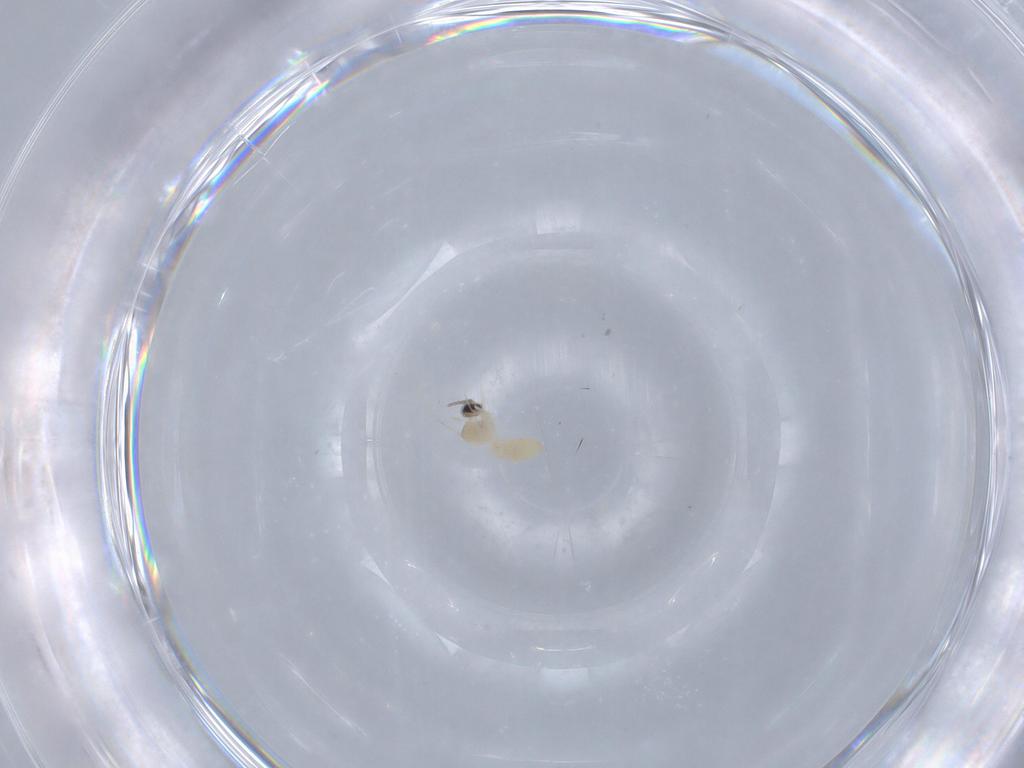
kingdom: Animalia
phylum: Arthropoda
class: Insecta
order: Diptera
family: Cecidomyiidae
